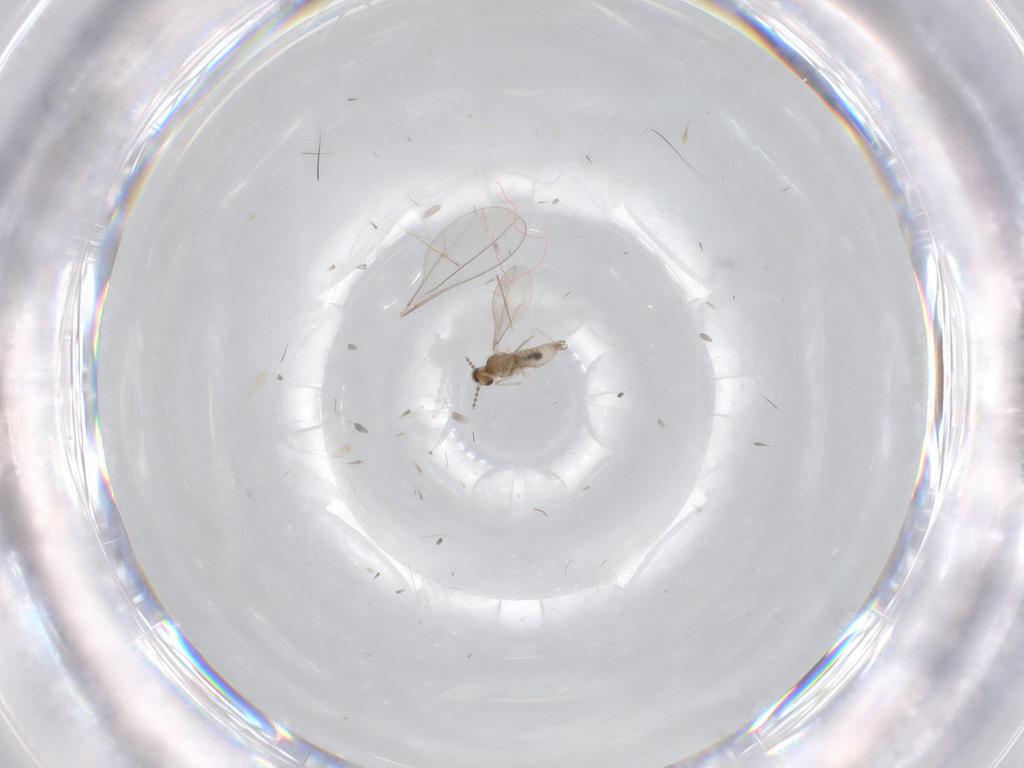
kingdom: Animalia
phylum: Arthropoda
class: Insecta
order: Diptera
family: Cecidomyiidae
